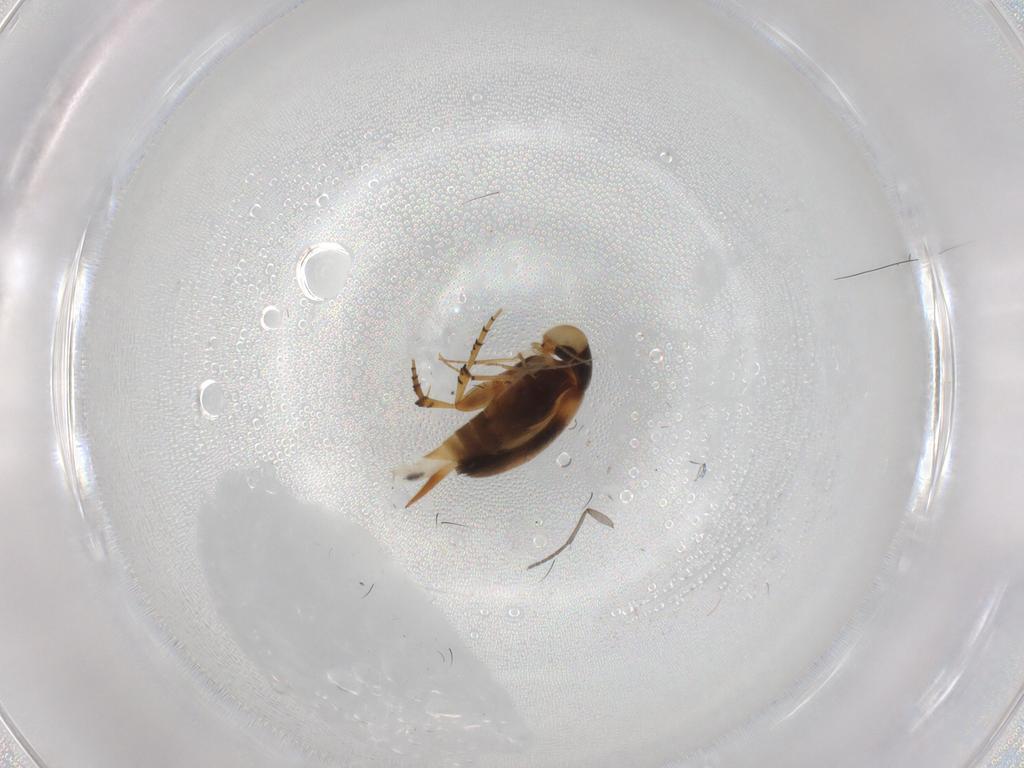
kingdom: Animalia
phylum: Arthropoda
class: Insecta
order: Coleoptera
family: Mordellidae
